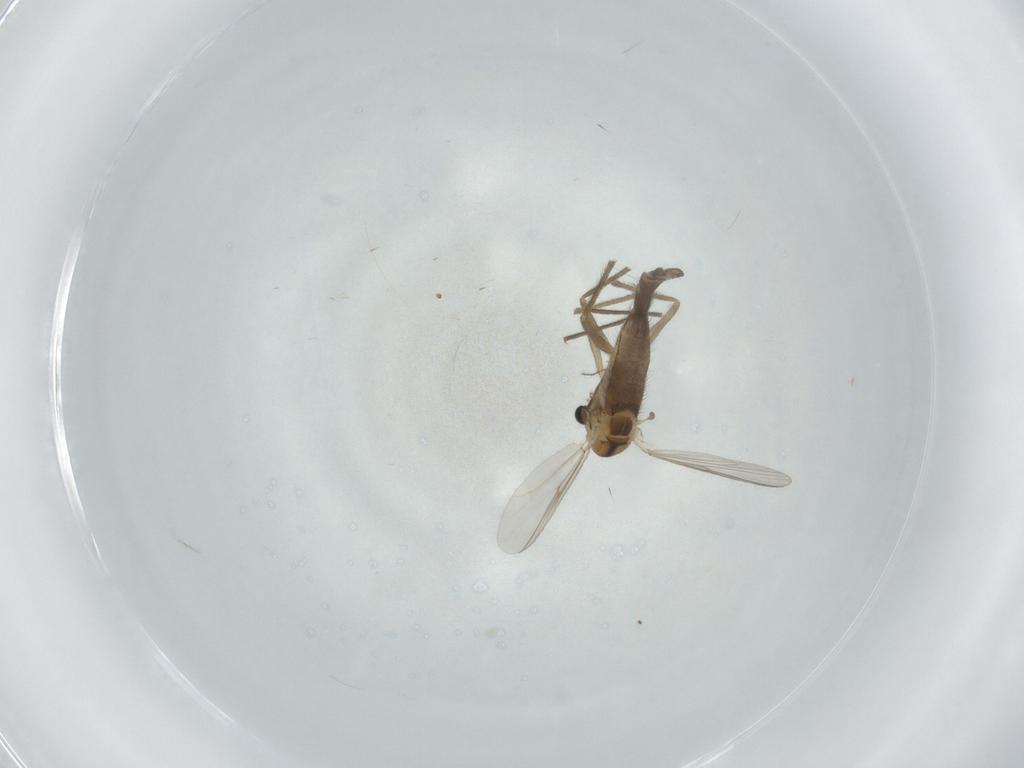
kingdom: Animalia
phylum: Arthropoda
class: Insecta
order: Diptera
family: Chironomidae
